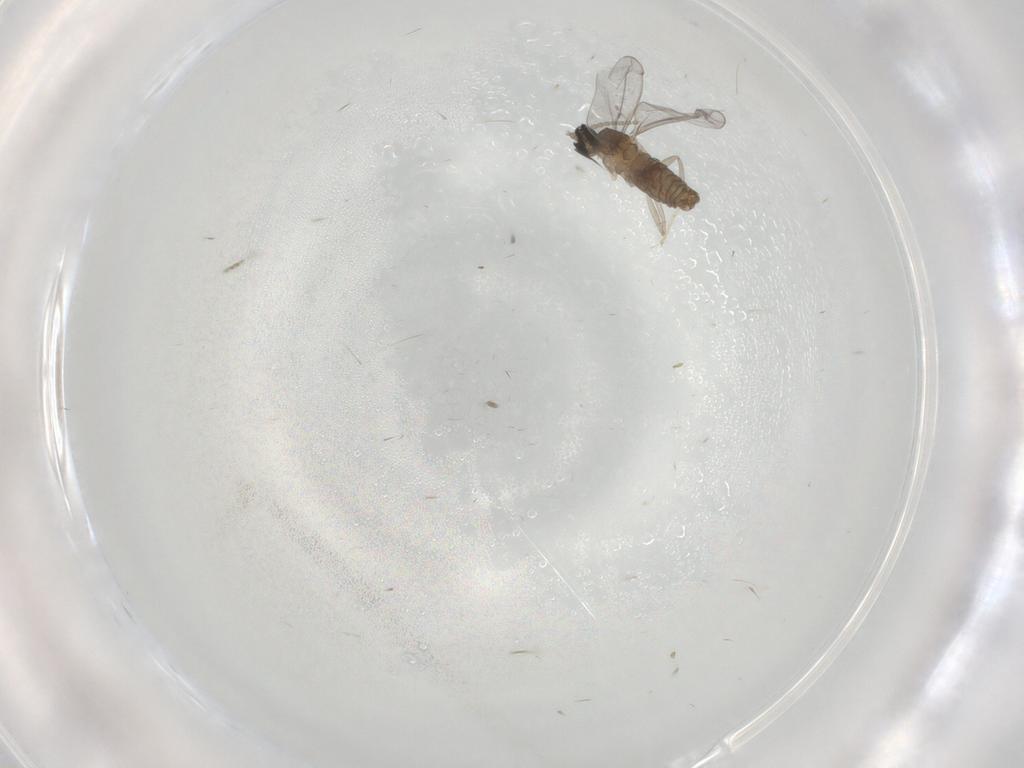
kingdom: Animalia
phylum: Arthropoda
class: Insecta
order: Diptera
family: Cecidomyiidae
